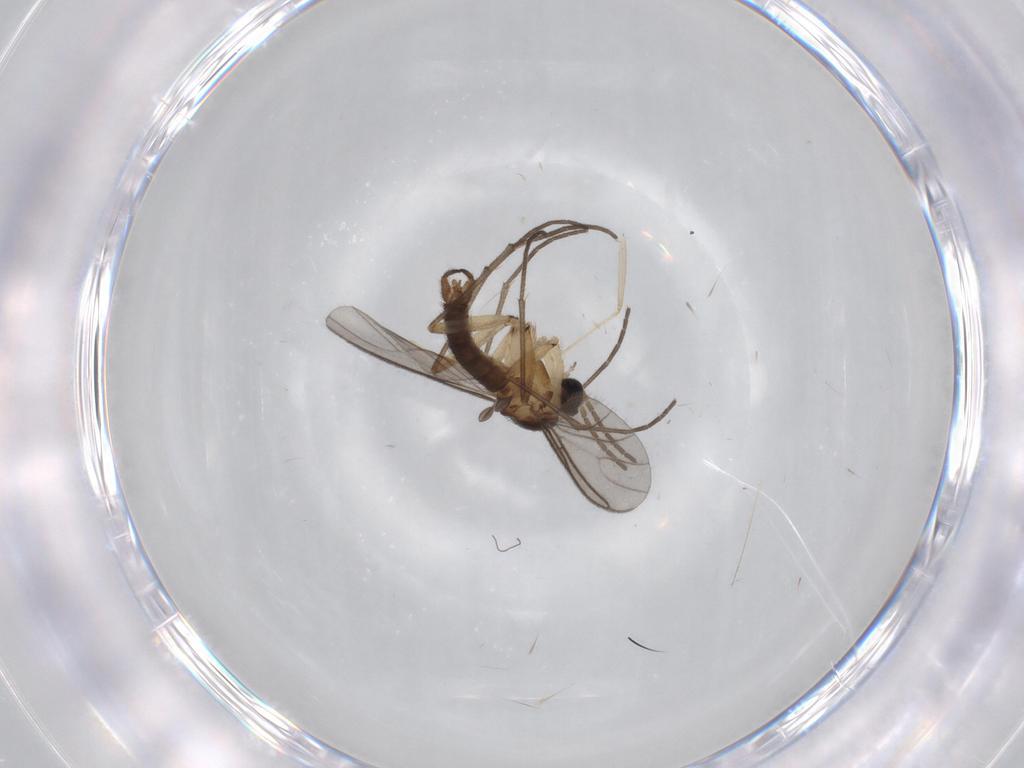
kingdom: Animalia
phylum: Arthropoda
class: Insecta
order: Diptera
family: Sciaridae
